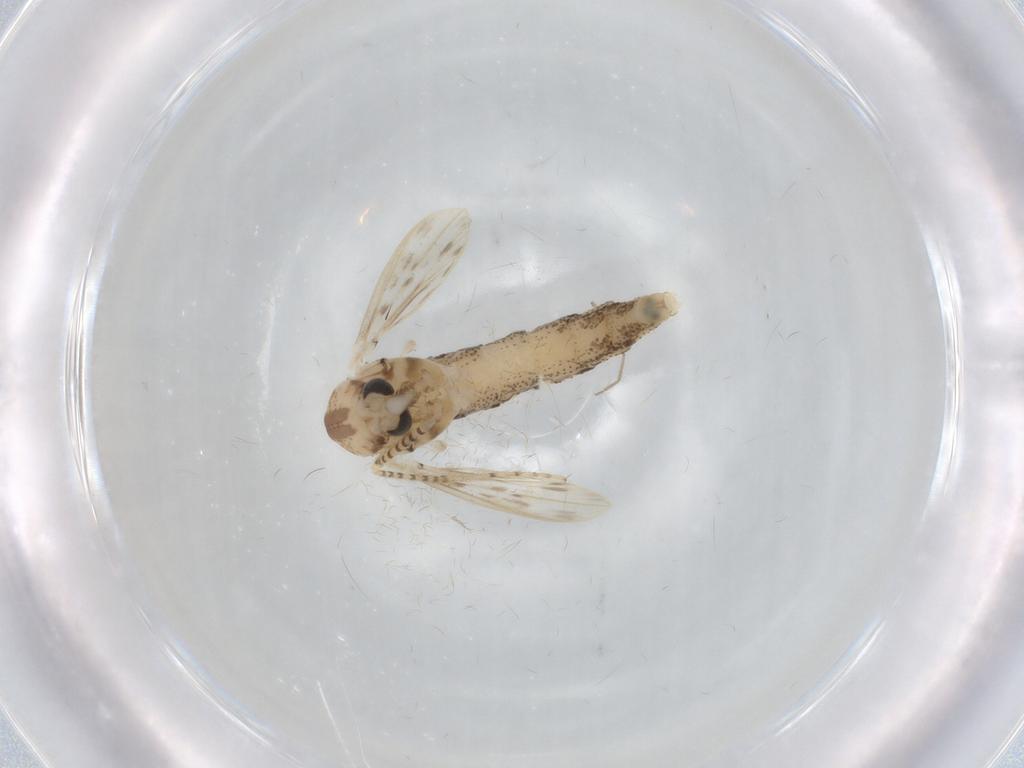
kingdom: Animalia
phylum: Arthropoda
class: Insecta
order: Diptera
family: Chaoboridae
